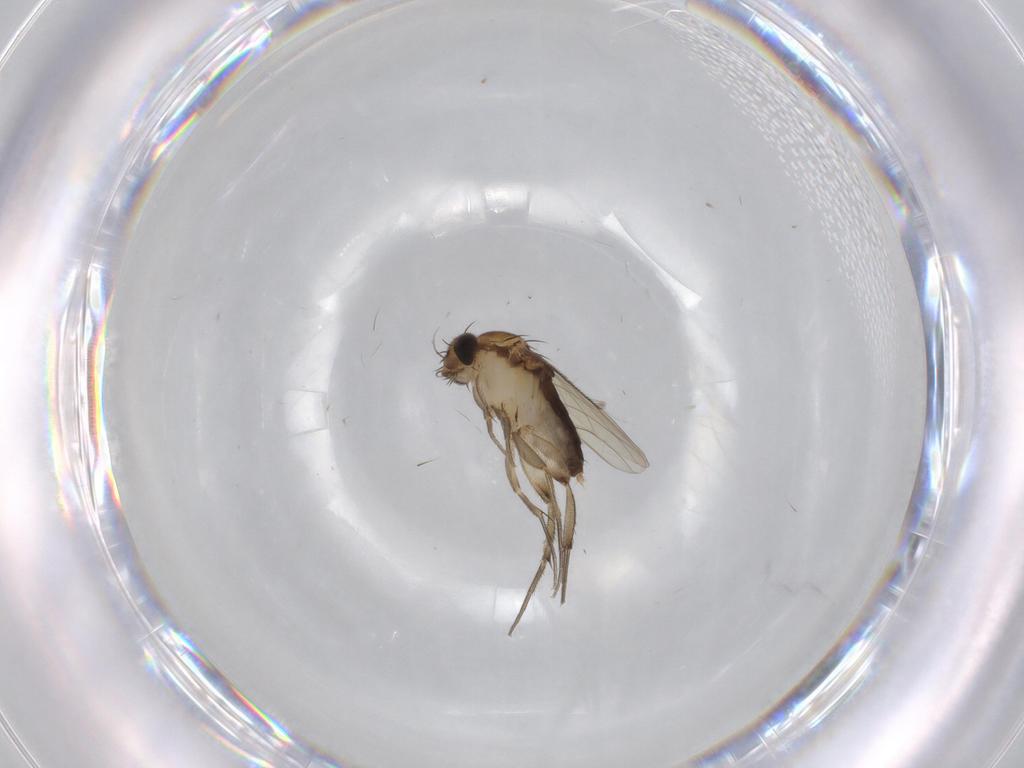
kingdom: Animalia
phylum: Arthropoda
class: Insecta
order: Diptera
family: Phoridae
